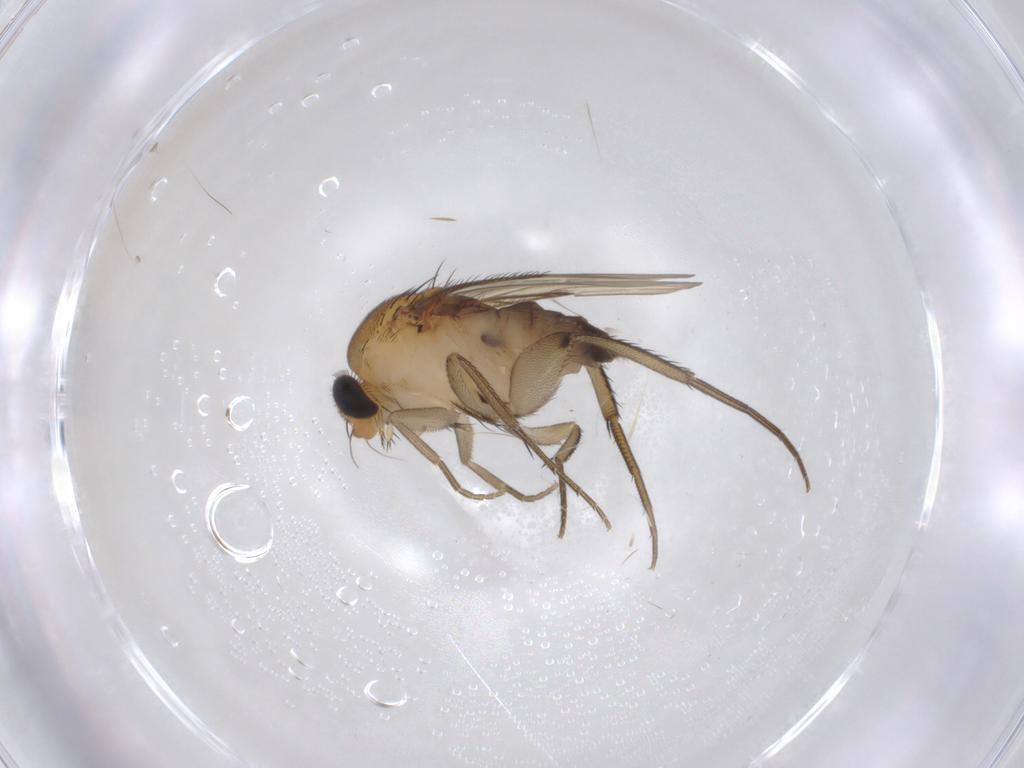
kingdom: Animalia
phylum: Arthropoda
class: Insecta
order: Diptera
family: Phoridae
